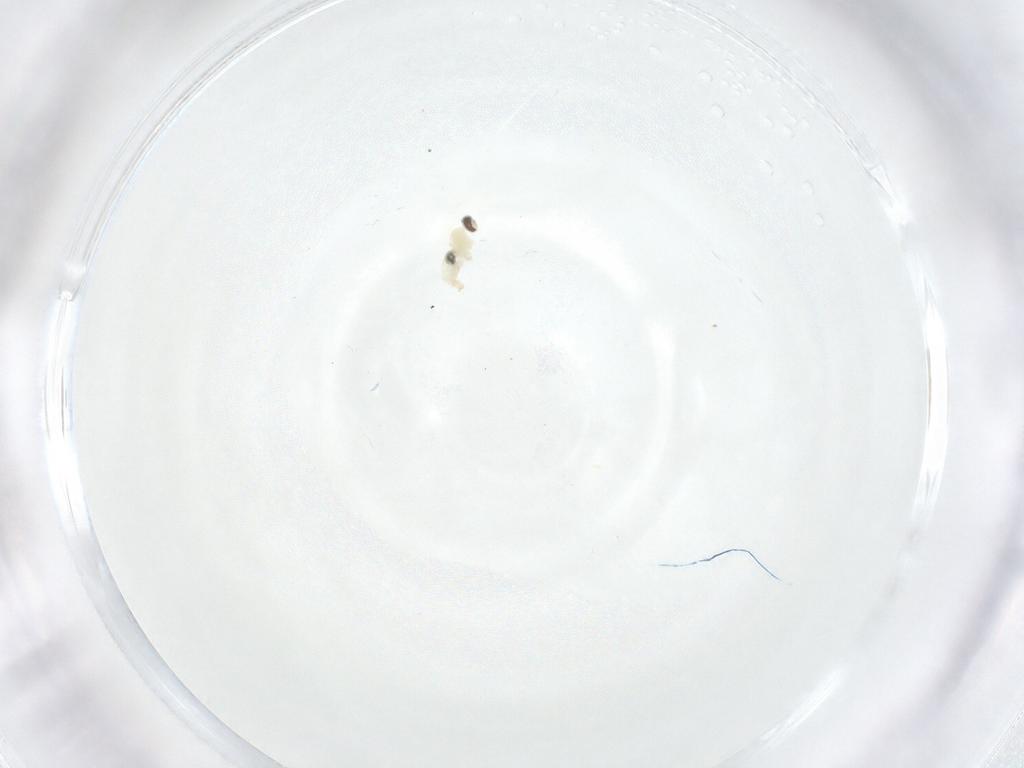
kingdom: Animalia
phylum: Arthropoda
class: Insecta
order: Diptera
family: Cecidomyiidae
